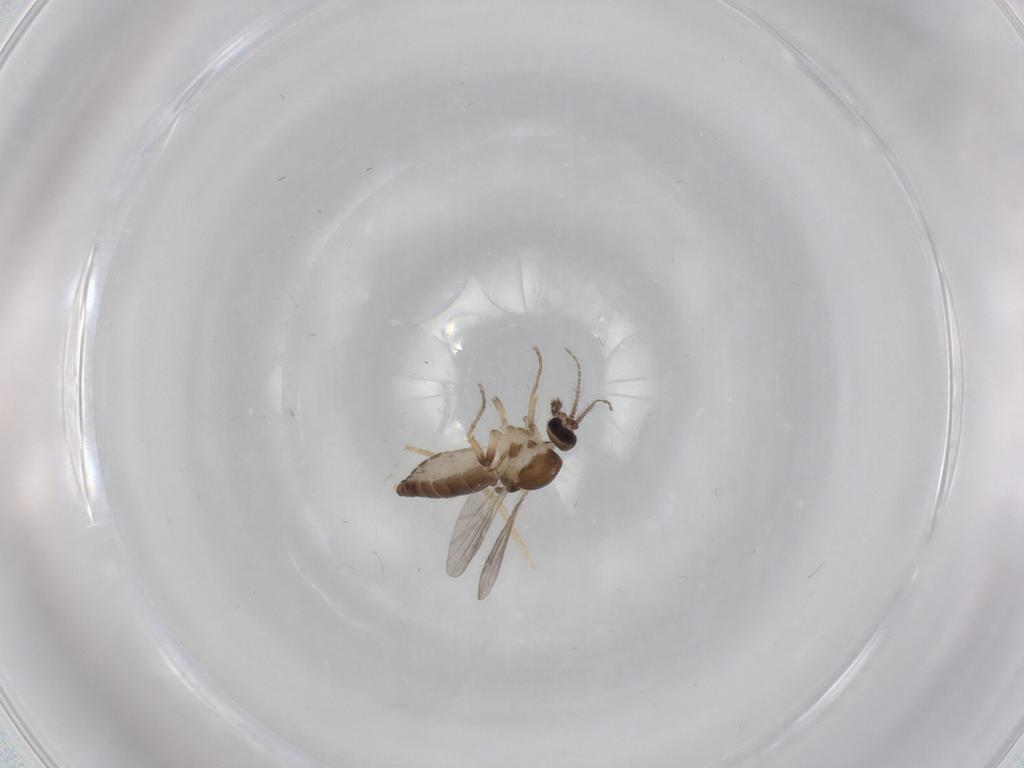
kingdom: Animalia
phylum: Arthropoda
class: Insecta
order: Diptera
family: Ceratopogonidae
